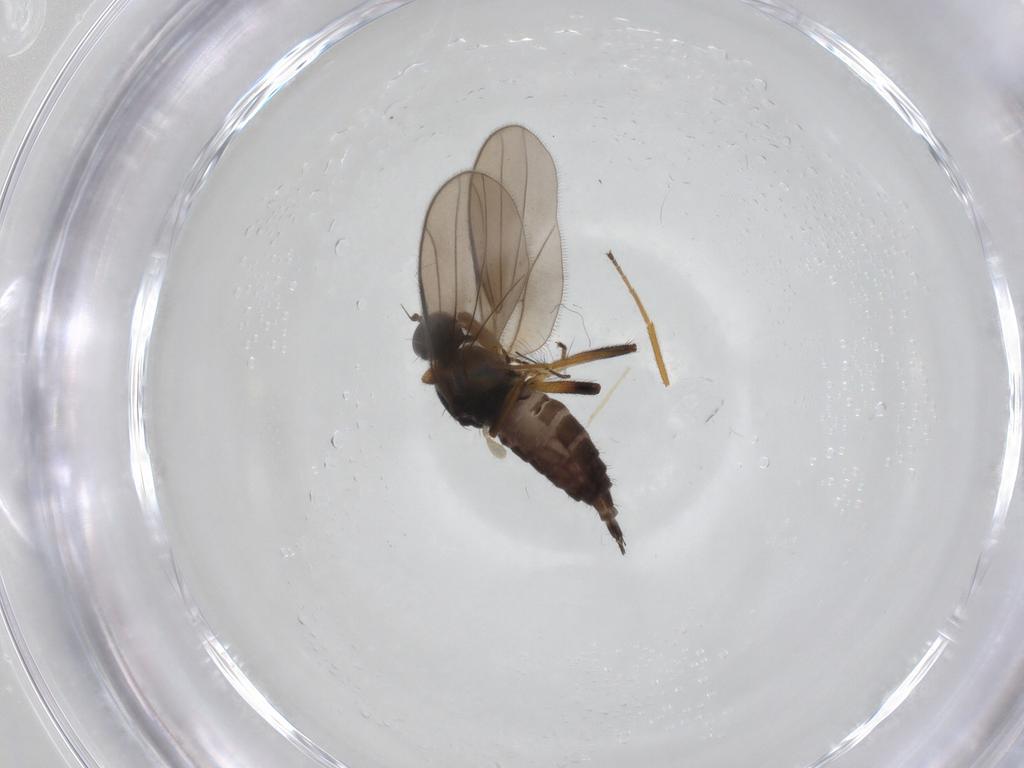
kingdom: Animalia
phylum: Arthropoda
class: Insecta
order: Diptera
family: Hybotidae
